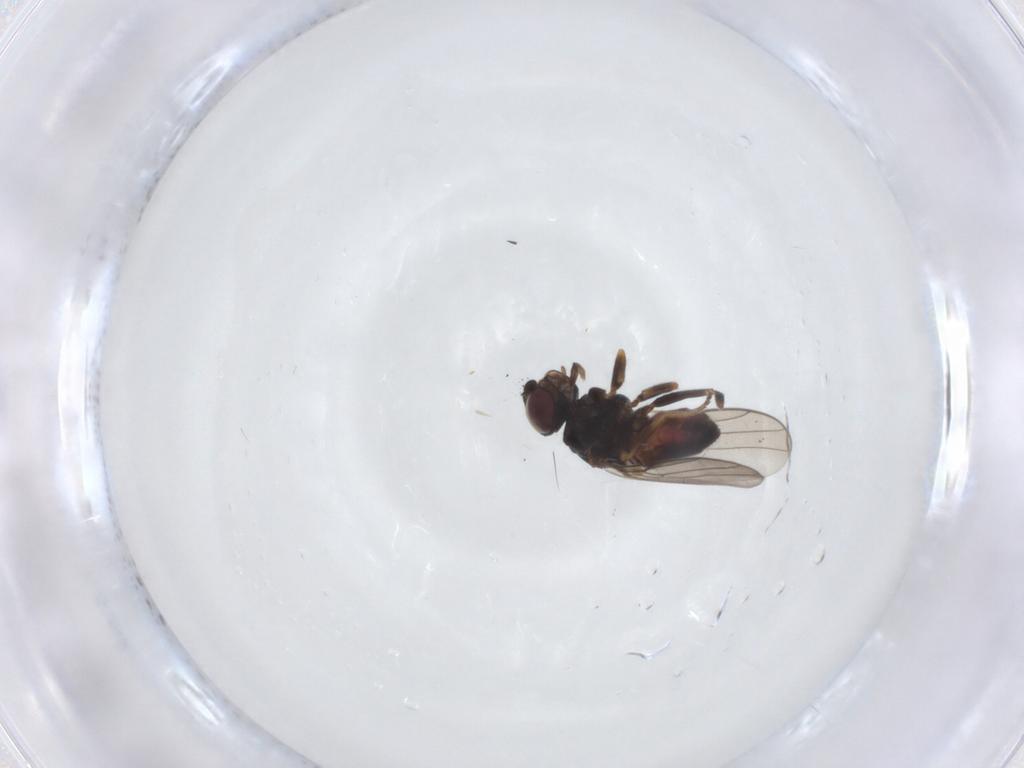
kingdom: Animalia
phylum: Arthropoda
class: Insecta
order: Diptera
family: Chloropidae
